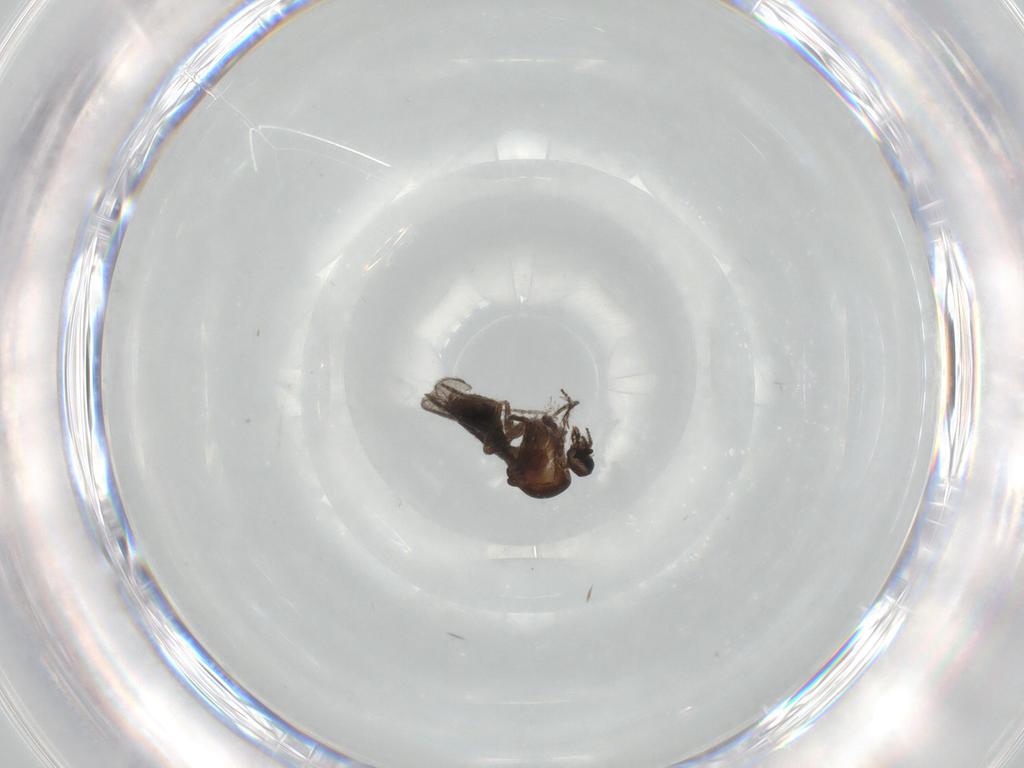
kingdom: Animalia
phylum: Arthropoda
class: Insecta
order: Diptera
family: Ceratopogonidae
